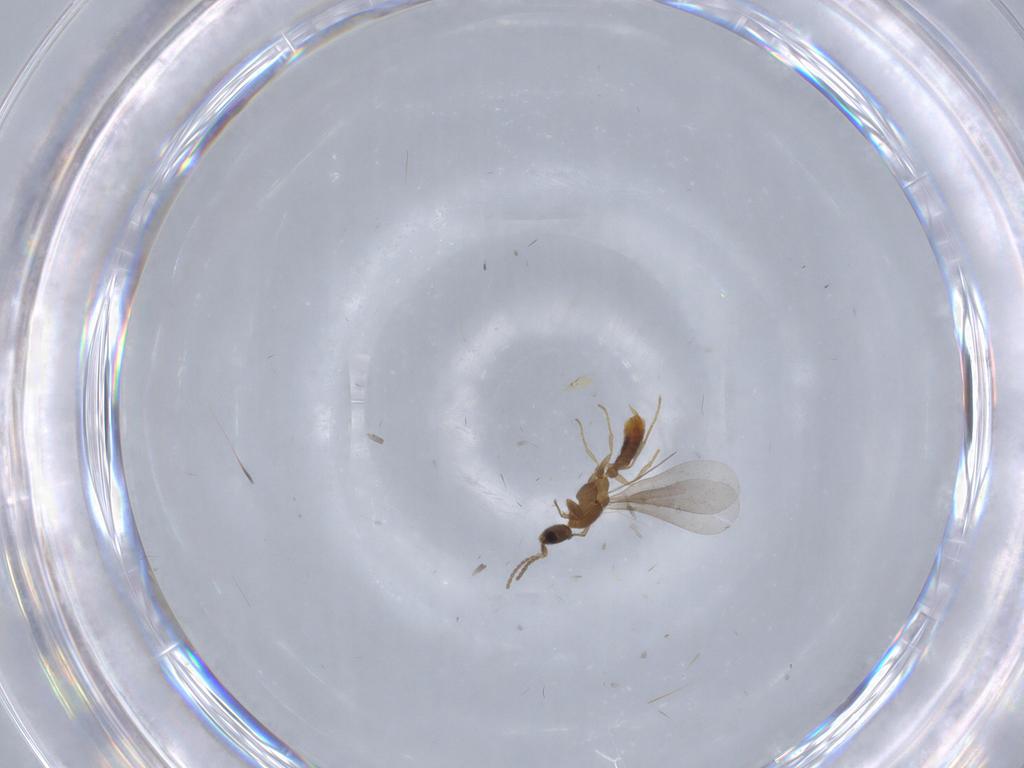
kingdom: Animalia
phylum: Arthropoda
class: Insecta
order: Hymenoptera
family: Formicidae
